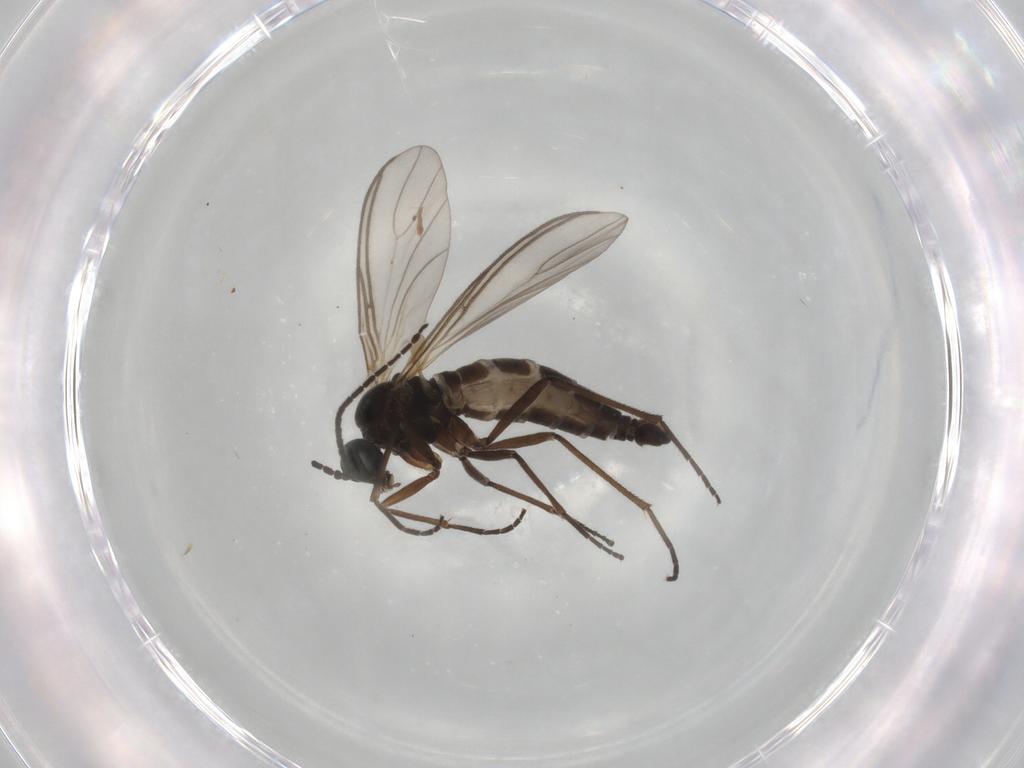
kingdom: Animalia
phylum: Arthropoda
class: Insecta
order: Diptera
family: Sciaridae
